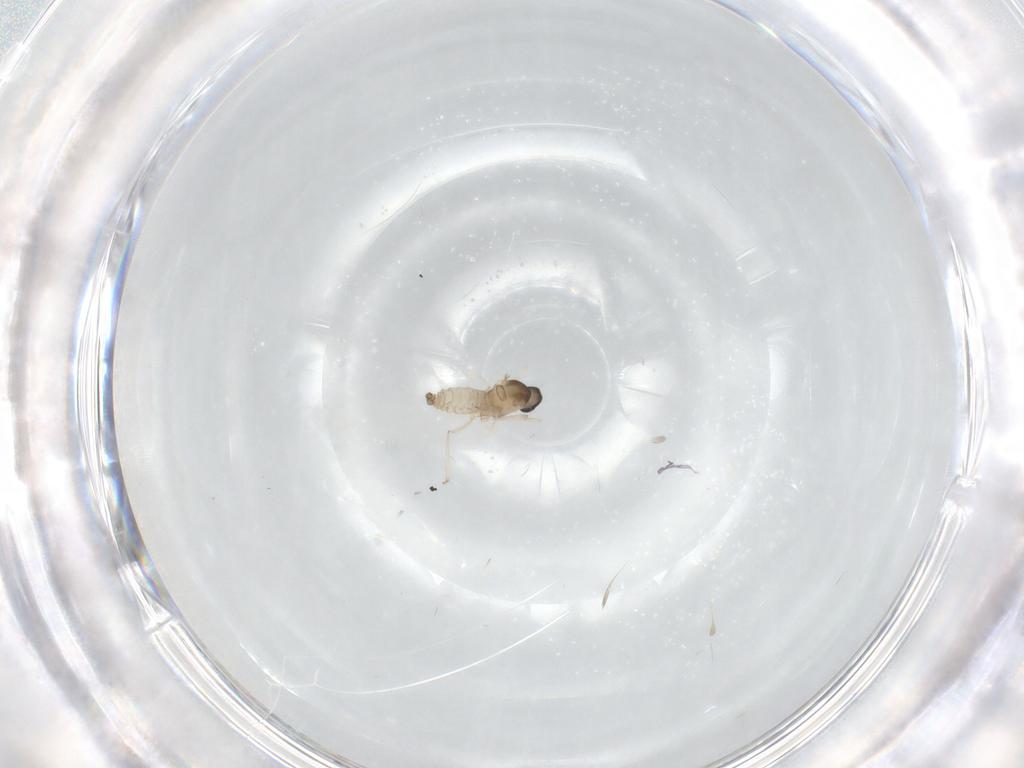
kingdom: Animalia
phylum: Arthropoda
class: Insecta
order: Diptera
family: Cecidomyiidae
